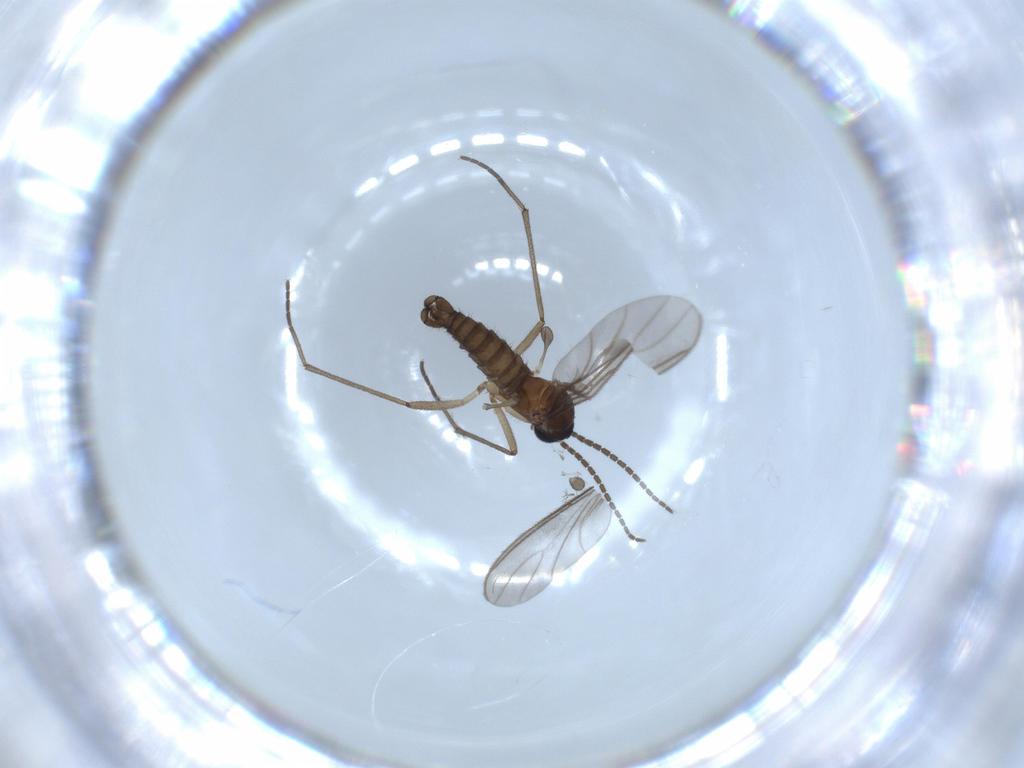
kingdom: Animalia
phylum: Arthropoda
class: Insecta
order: Diptera
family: Sciaridae
